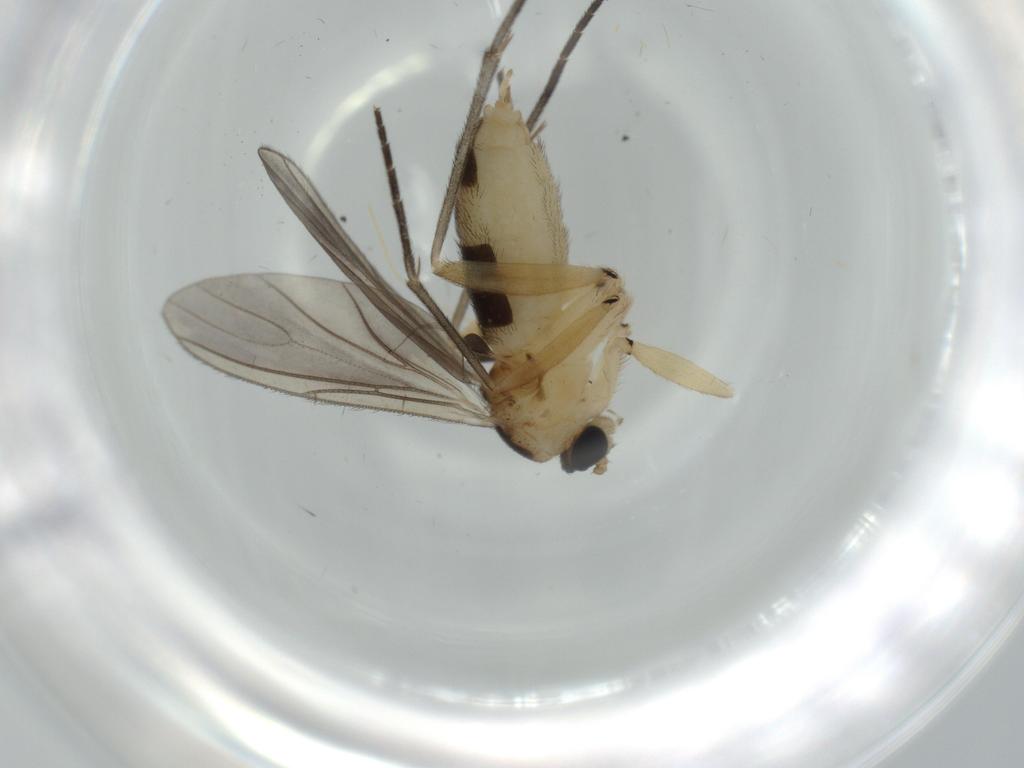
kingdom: Animalia
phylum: Arthropoda
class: Insecta
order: Diptera
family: Sciaridae
